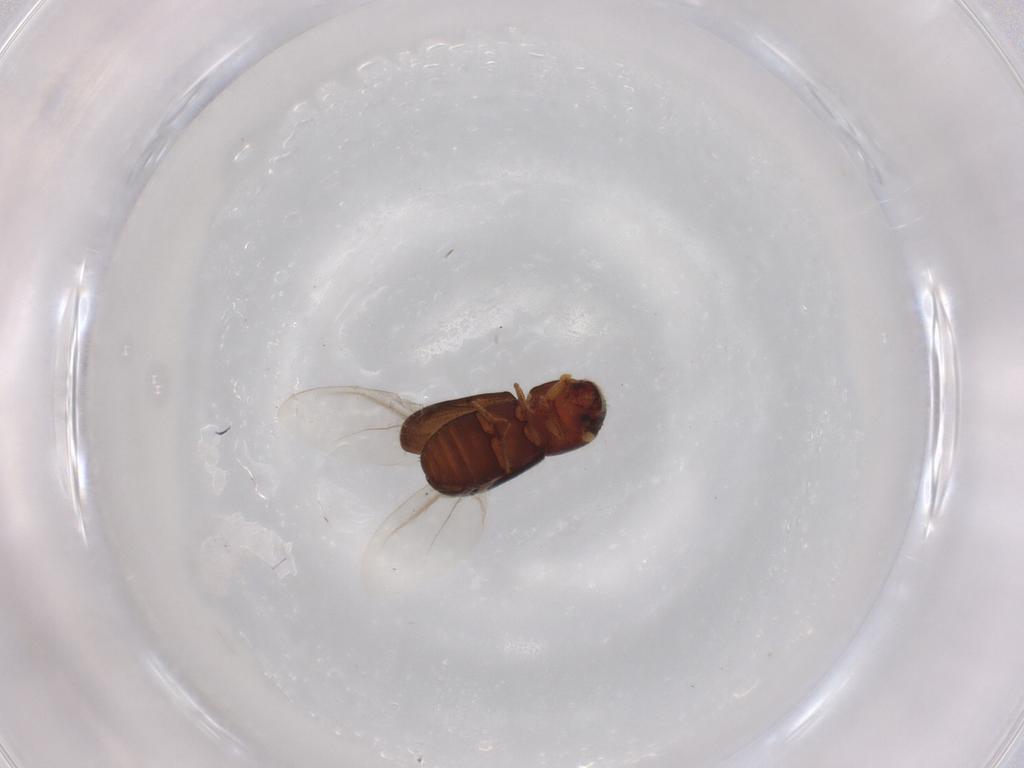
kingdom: Animalia
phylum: Arthropoda
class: Insecta
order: Coleoptera
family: Curculionidae
